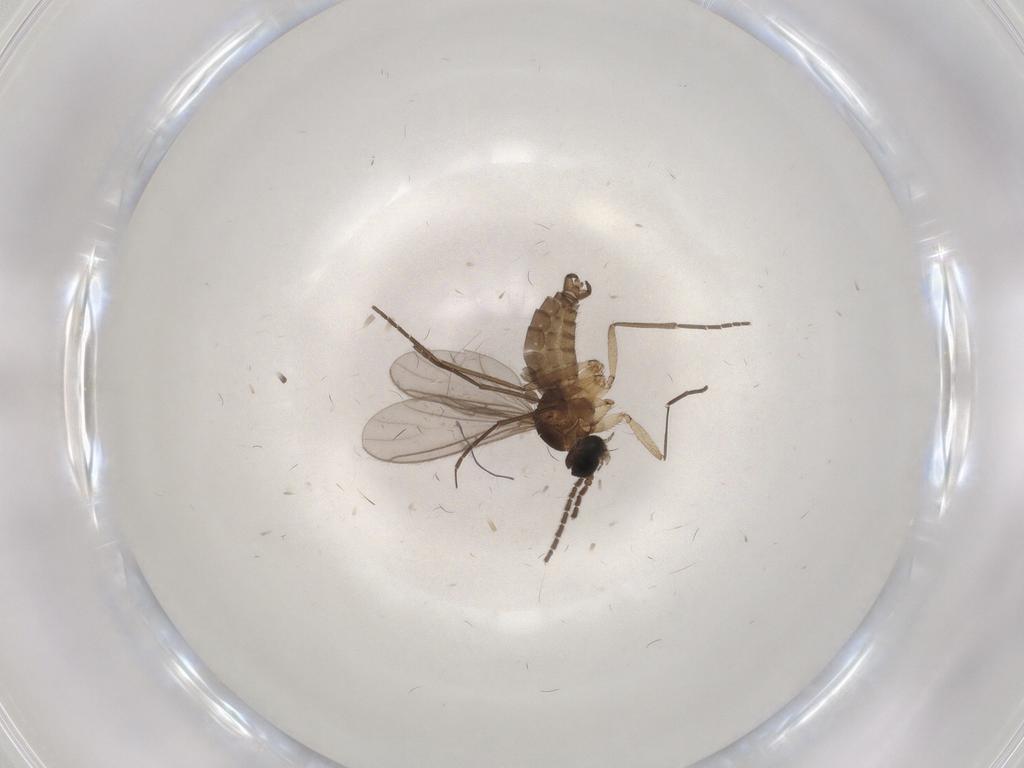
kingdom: Animalia
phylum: Arthropoda
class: Insecta
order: Diptera
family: Sciaridae
